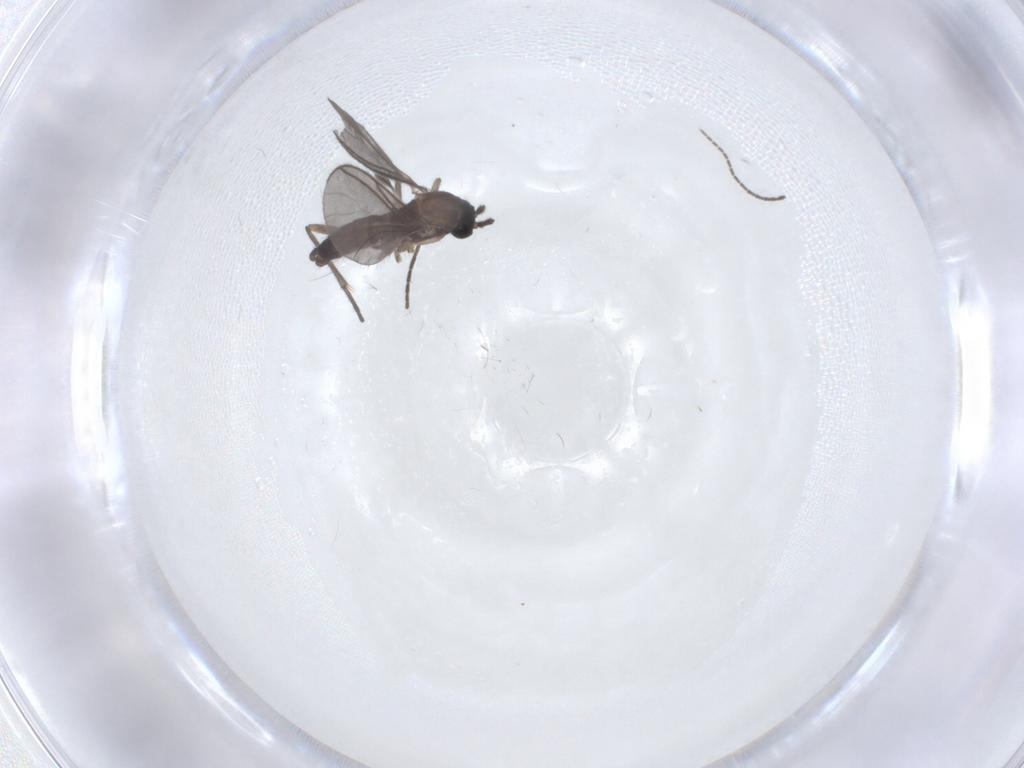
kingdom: Animalia
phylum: Arthropoda
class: Insecta
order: Diptera
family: Sciaridae
